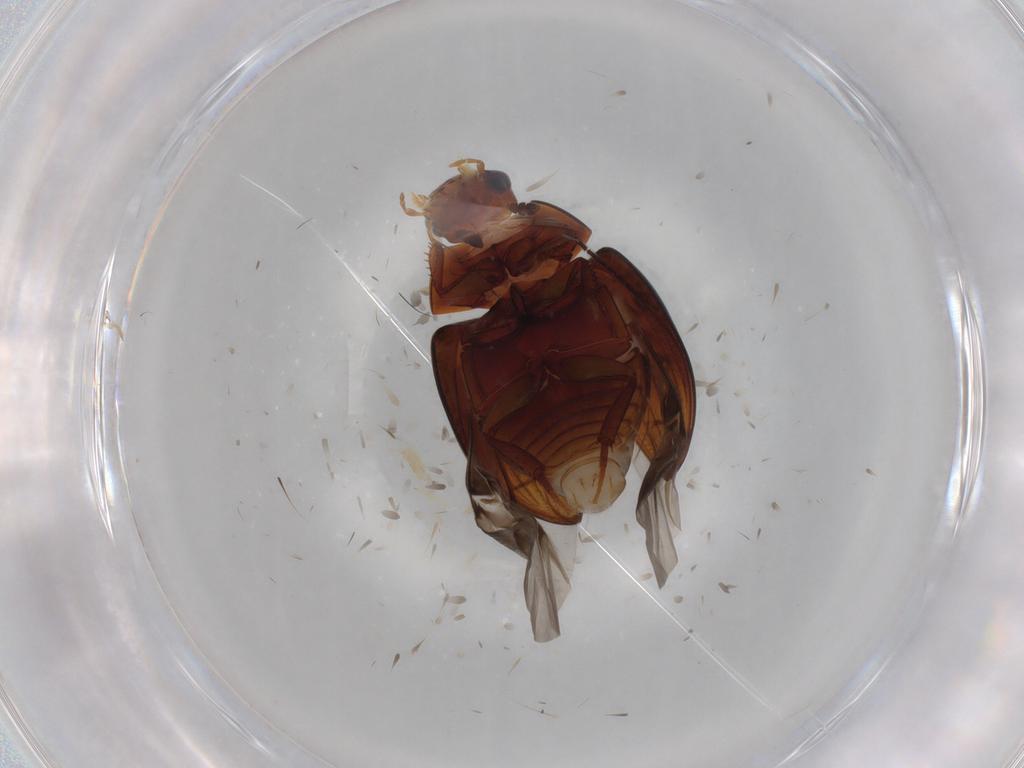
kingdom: Animalia
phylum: Arthropoda
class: Insecta
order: Coleoptera
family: Hydrophilidae
